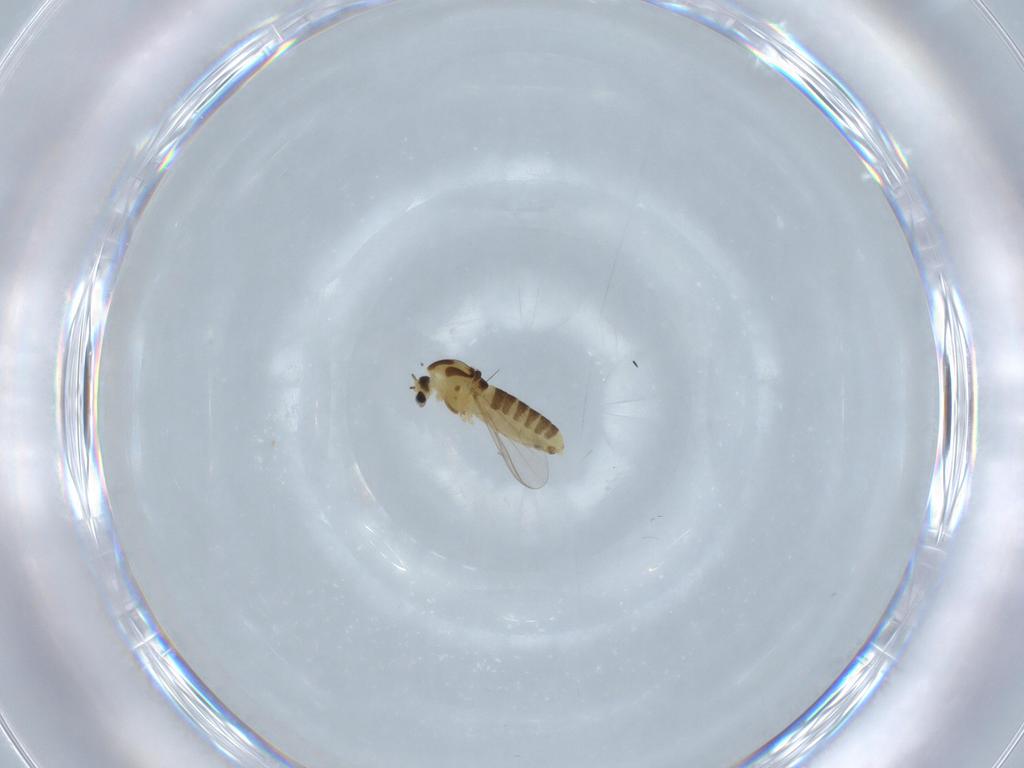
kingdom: Animalia
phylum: Arthropoda
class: Insecta
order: Diptera
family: Chironomidae
